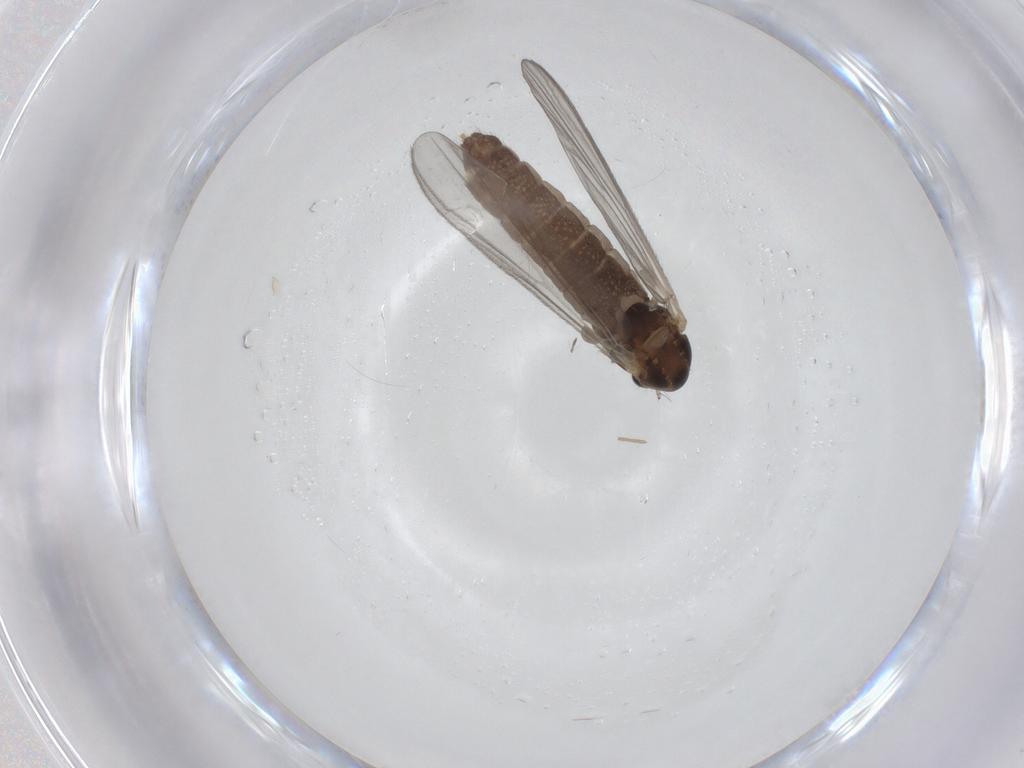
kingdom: Animalia
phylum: Arthropoda
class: Insecta
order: Diptera
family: Chironomidae
